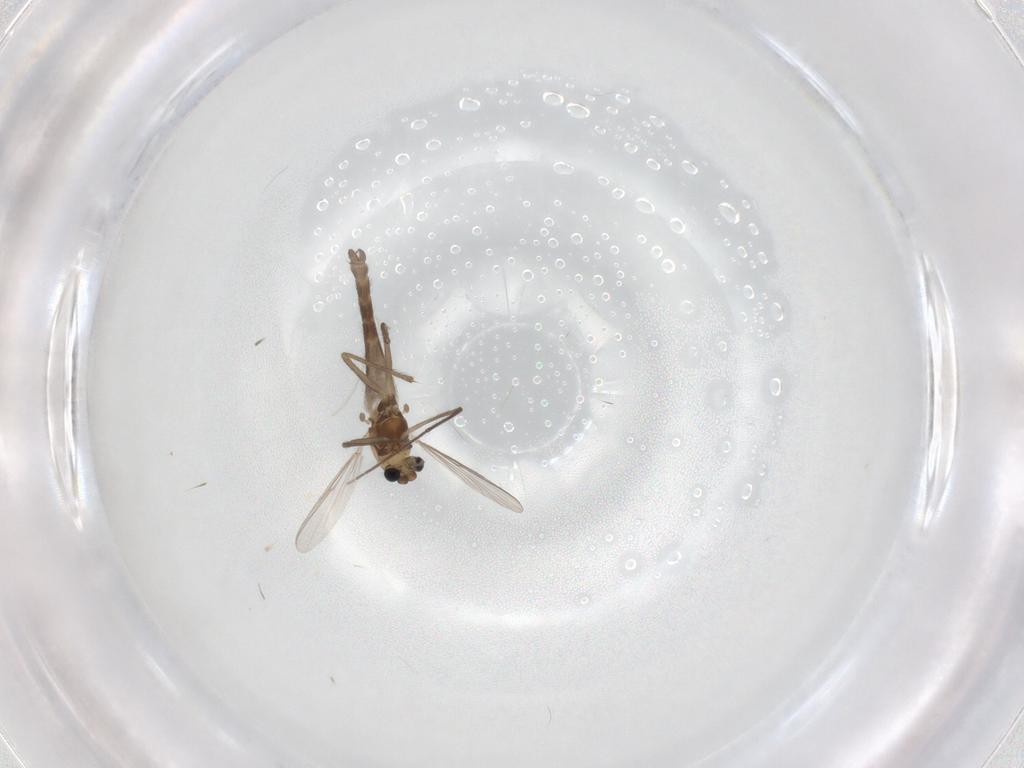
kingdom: Animalia
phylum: Arthropoda
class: Insecta
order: Diptera
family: Chironomidae
